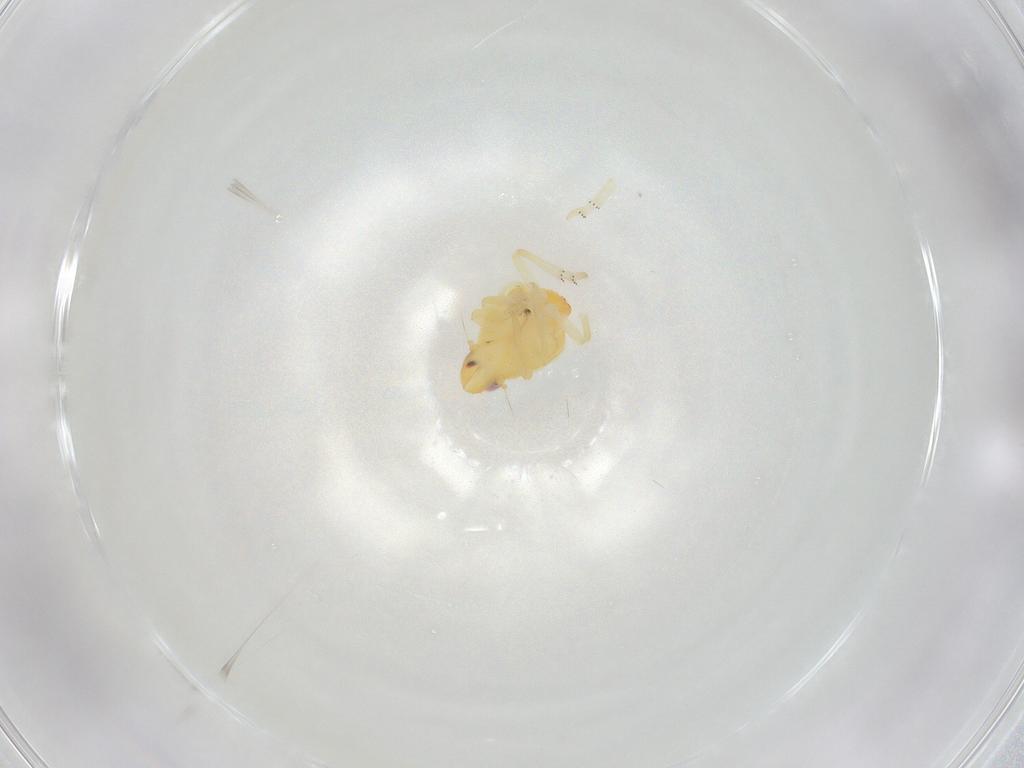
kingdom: Animalia
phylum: Arthropoda
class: Insecta
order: Hemiptera
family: Tropiduchidae
